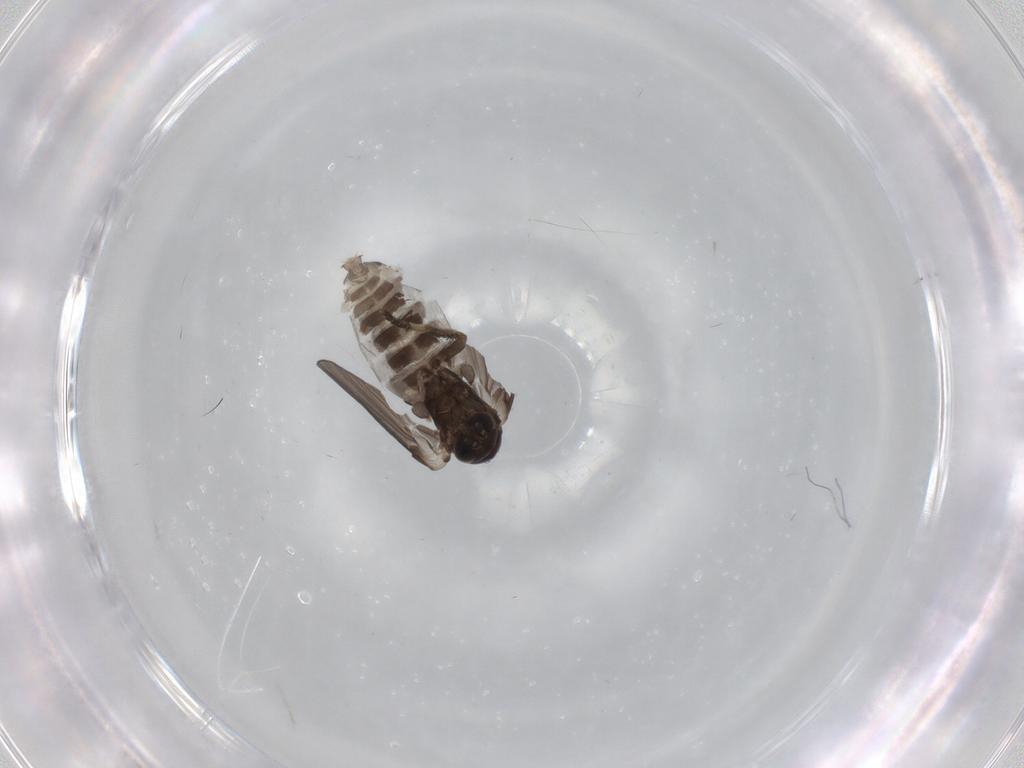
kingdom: Animalia
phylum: Arthropoda
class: Insecta
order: Diptera
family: Psychodidae
